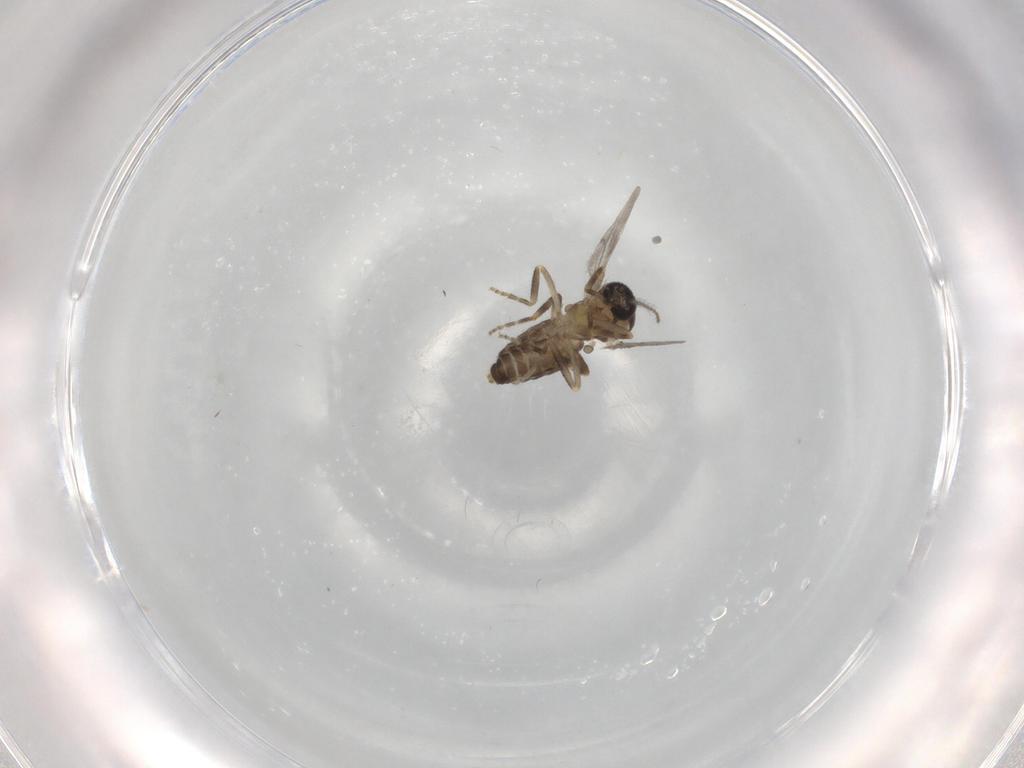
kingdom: Animalia
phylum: Arthropoda
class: Insecta
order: Diptera
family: Ceratopogonidae
